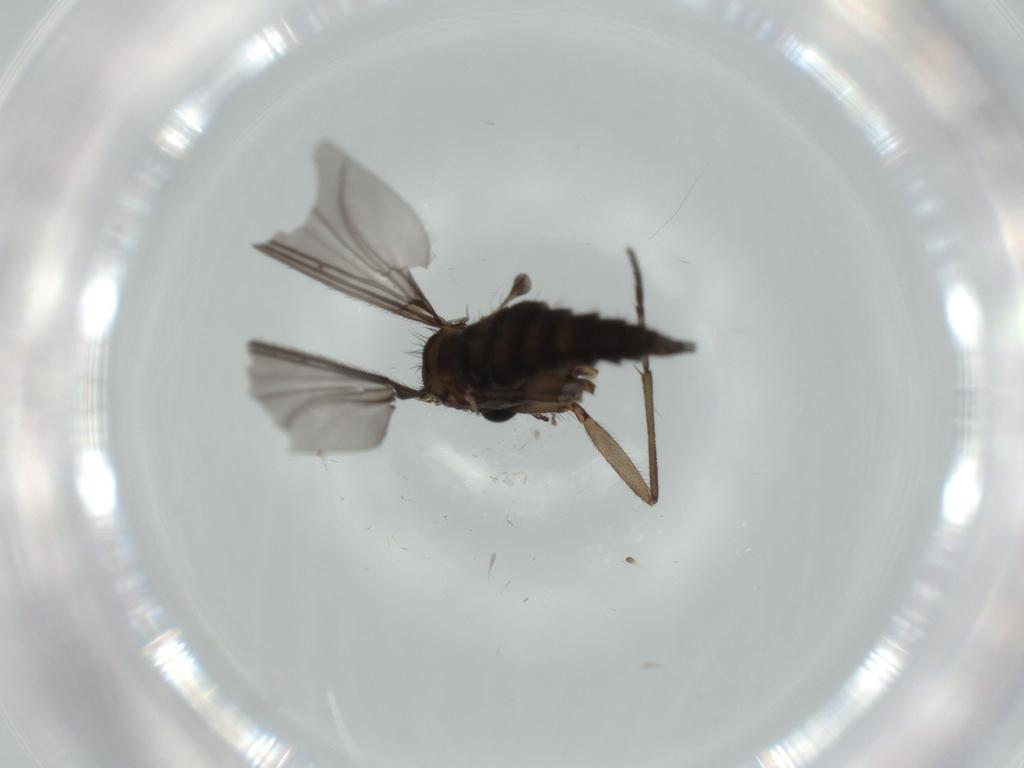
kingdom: Animalia
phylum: Arthropoda
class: Insecta
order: Diptera
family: Sciaridae
